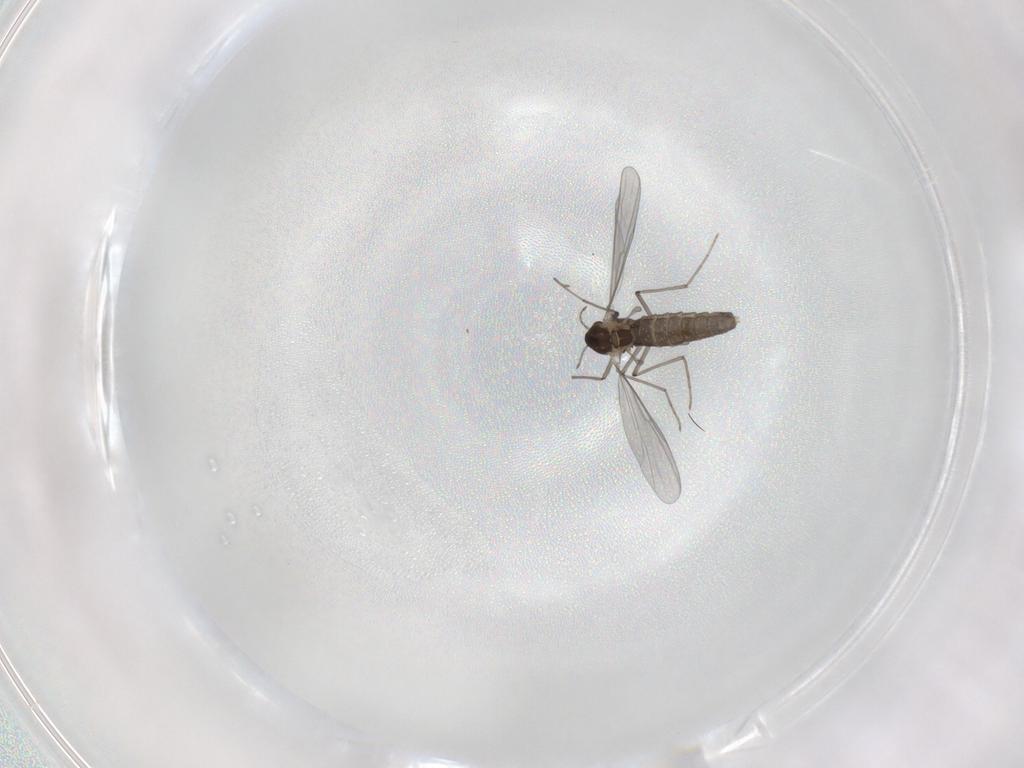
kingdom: Animalia
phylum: Arthropoda
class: Insecta
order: Diptera
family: Chironomidae
